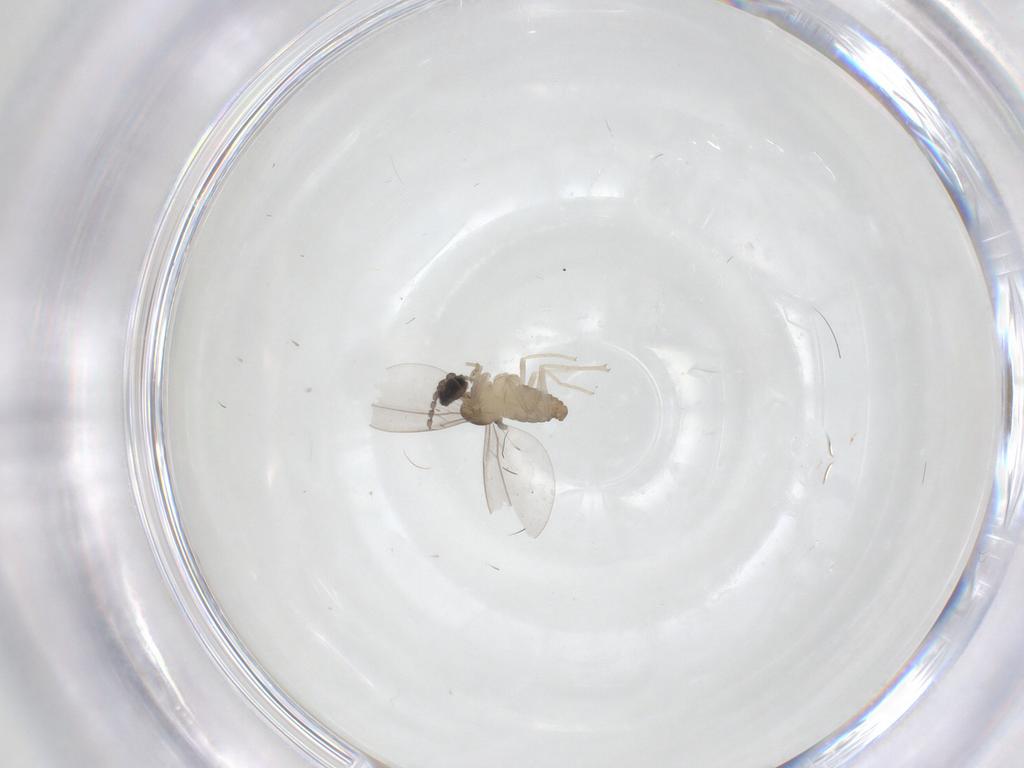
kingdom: Animalia
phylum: Arthropoda
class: Insecta
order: Diptera
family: Cecidomyiidae
